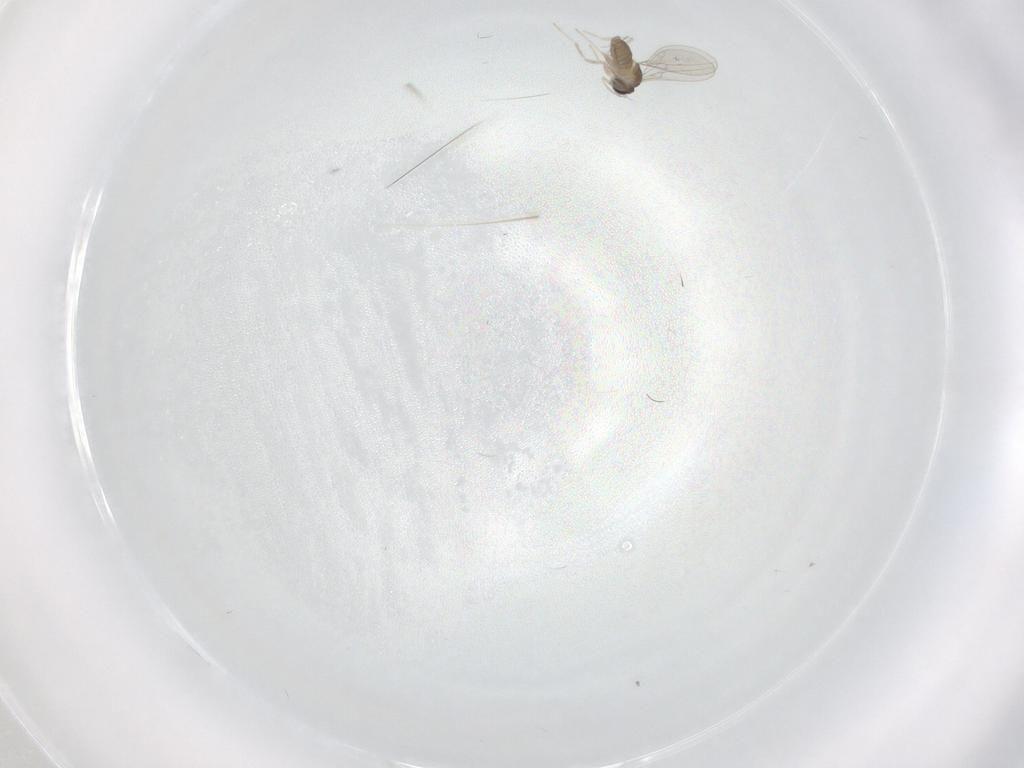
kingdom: Animalia
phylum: Arthropoda
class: Insecta
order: Diptera
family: Cecidomyiidae
